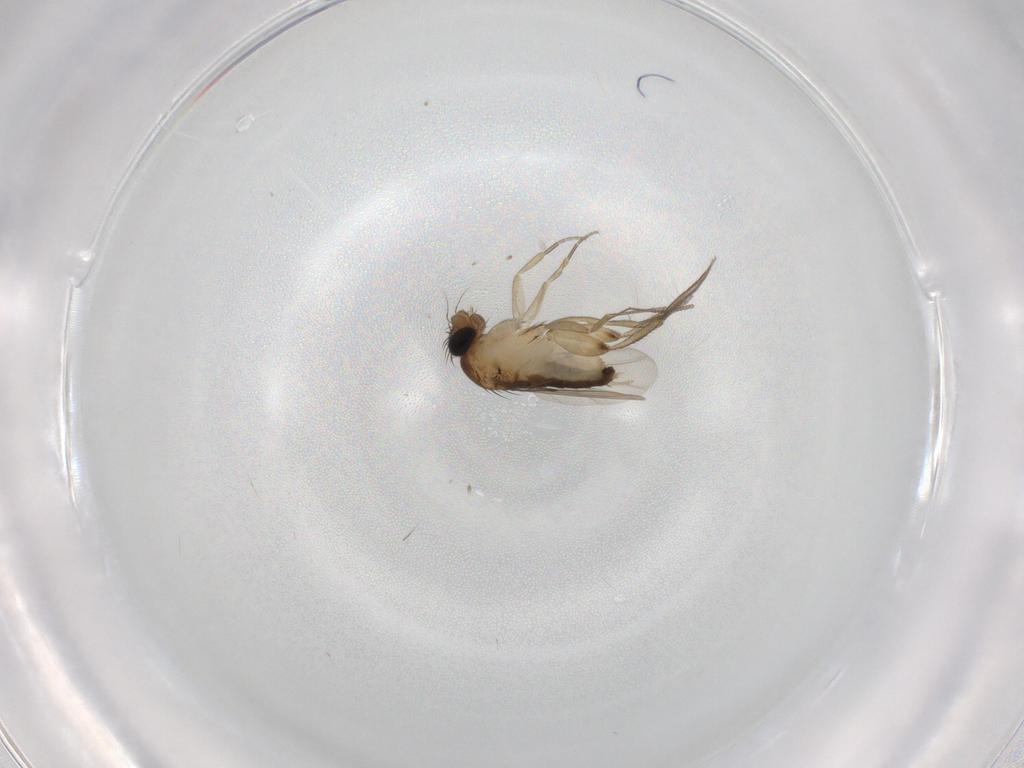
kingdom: Animalia
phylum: Arthropoda
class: Insecta
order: Diptera
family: Phoridae
